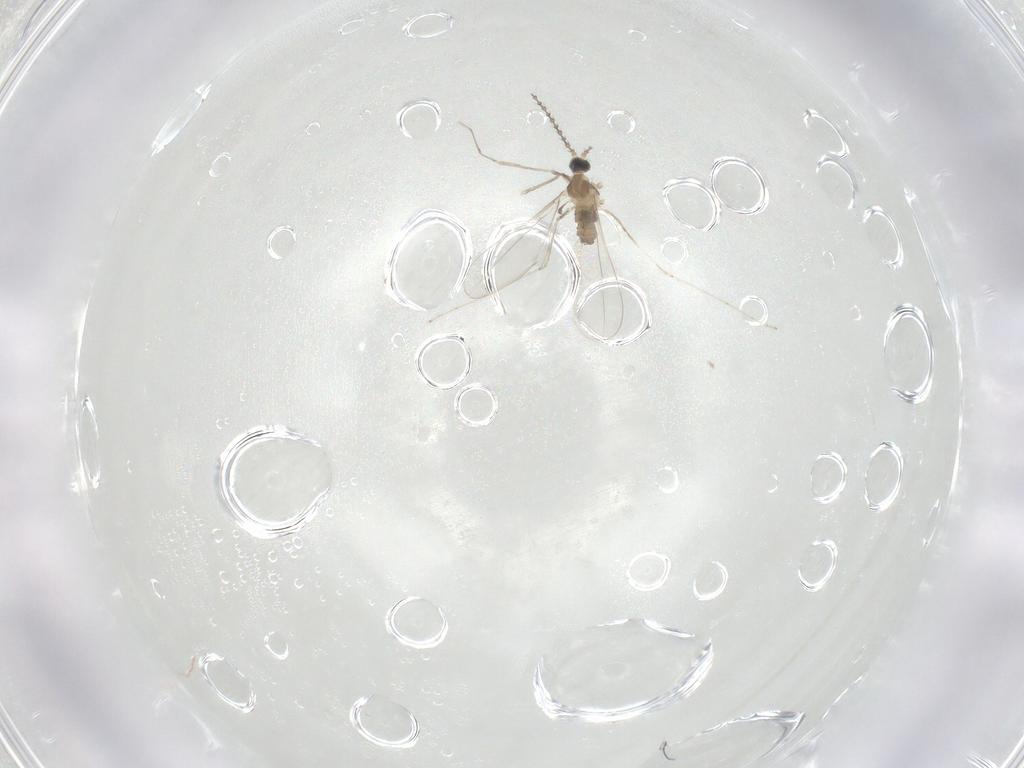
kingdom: Animalia
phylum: Arthropoda
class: Insecta
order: Diptera
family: Cecidomyiidae
